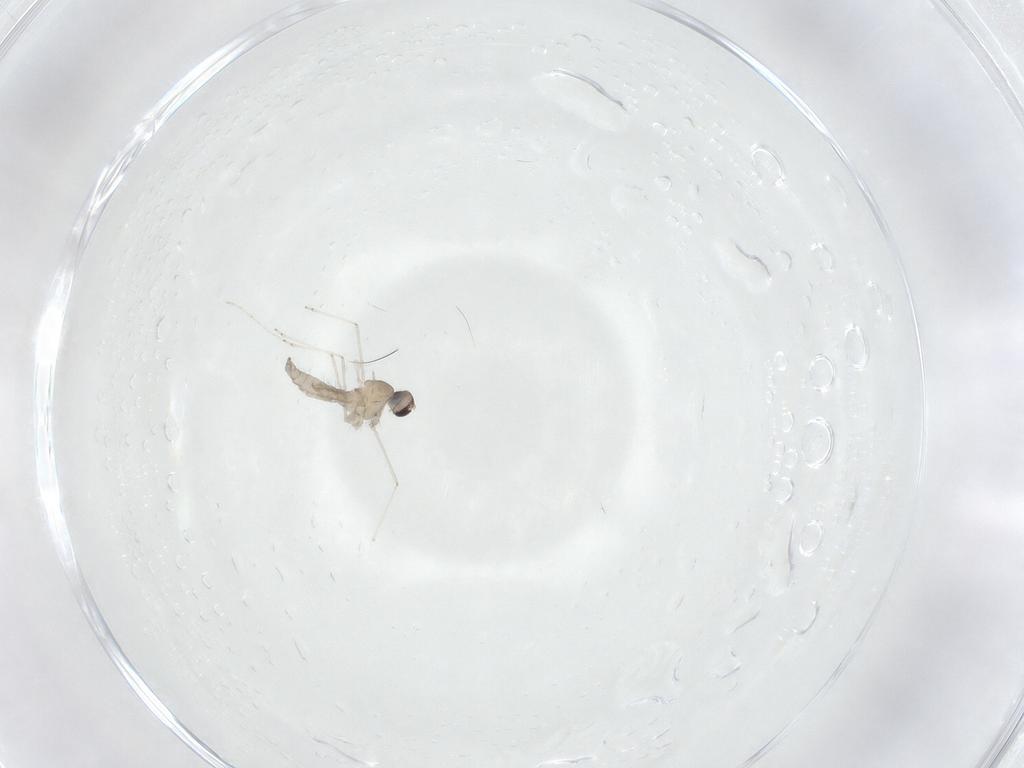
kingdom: Animalia
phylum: Arthropoda
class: Insecta
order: Diptera
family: Cecidomyiidae
